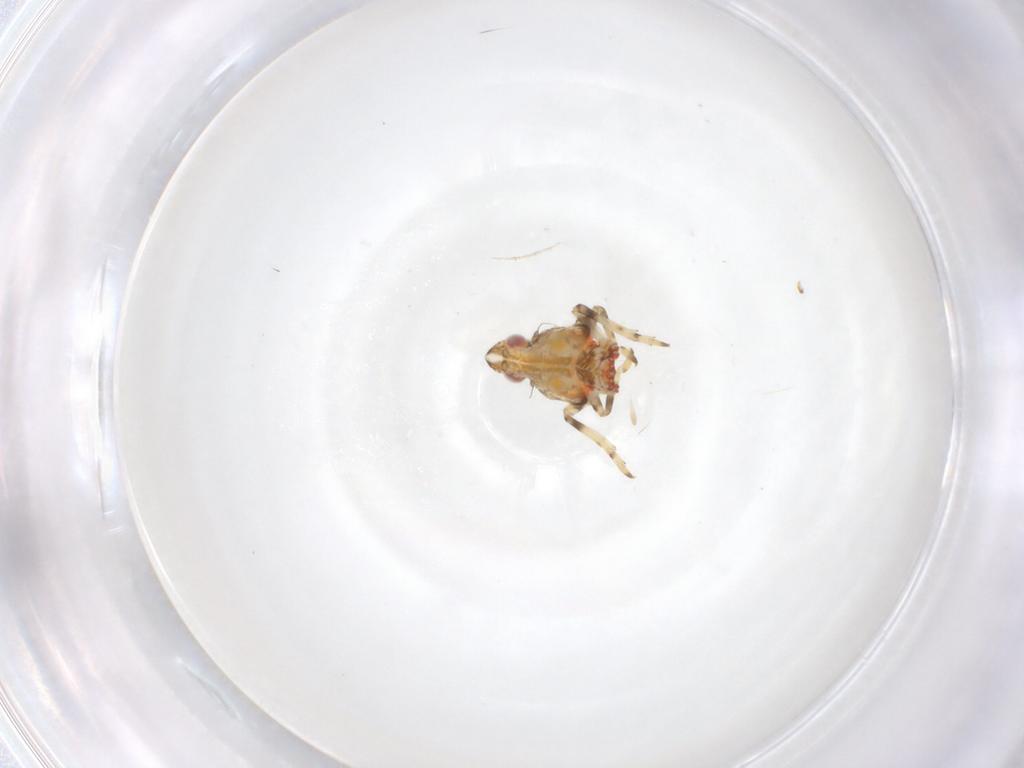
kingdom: Animalia
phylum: Arthropoda
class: Insecta
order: Hemiptera
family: Tropiduchidae
